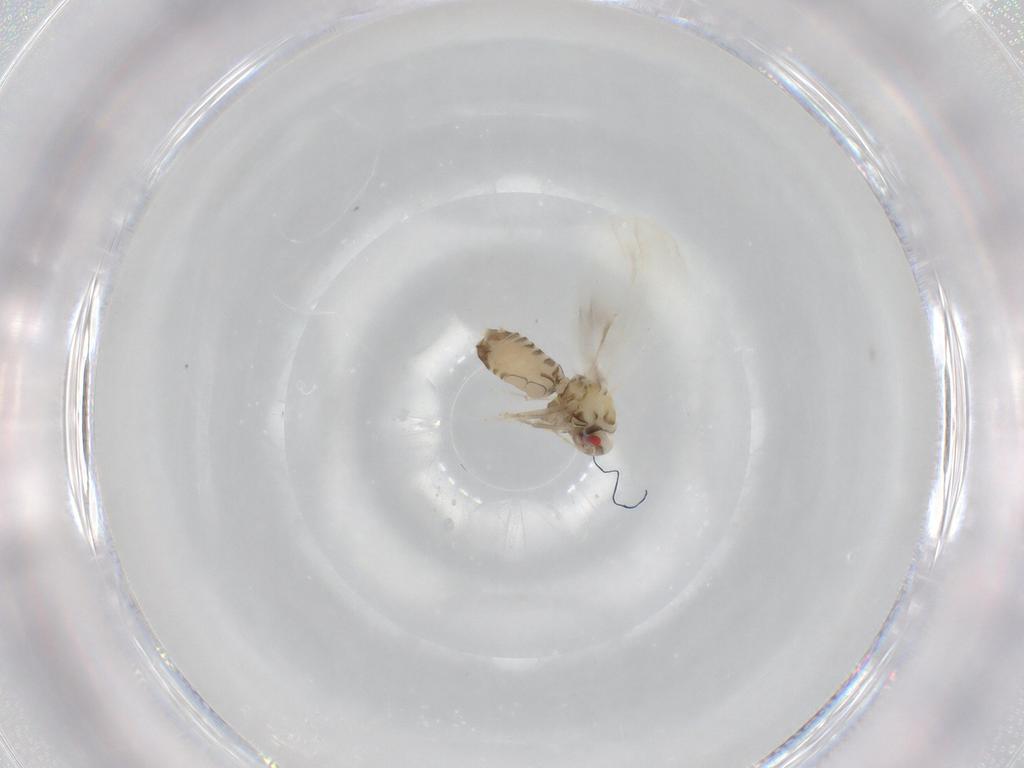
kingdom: Animalia
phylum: Arthropoda
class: Insecta
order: Hemiptera
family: Aleyrodidae
